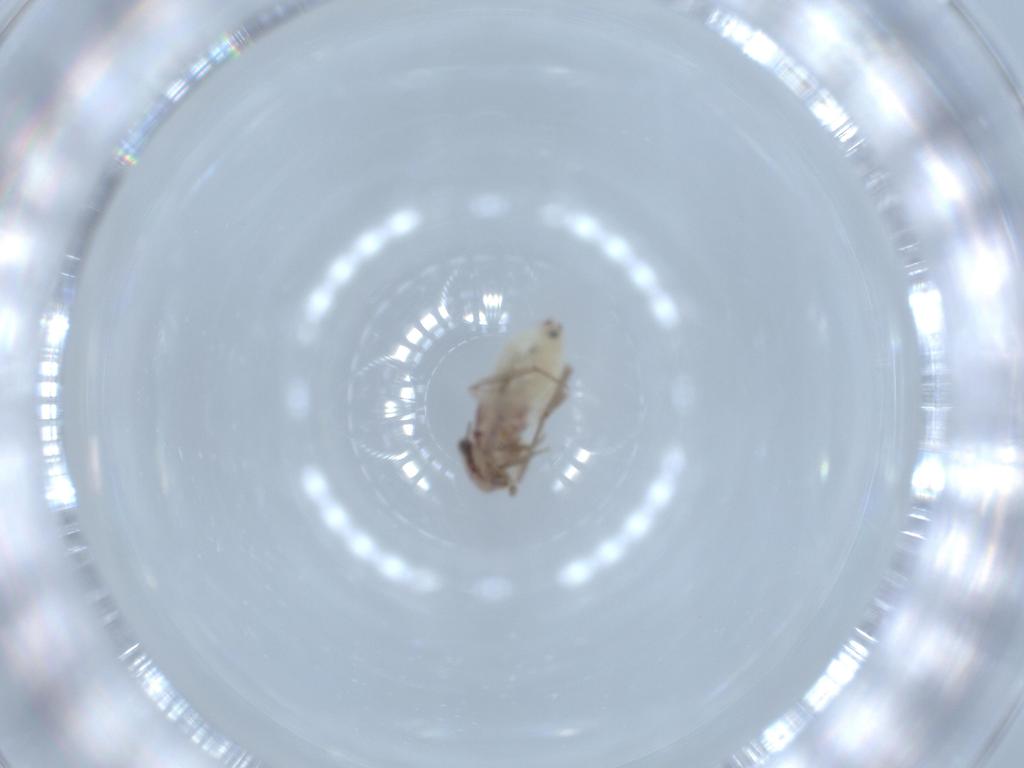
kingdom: Animalia
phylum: Arthropoda
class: Insecta
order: Psocodea
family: Lepidopsocidae
